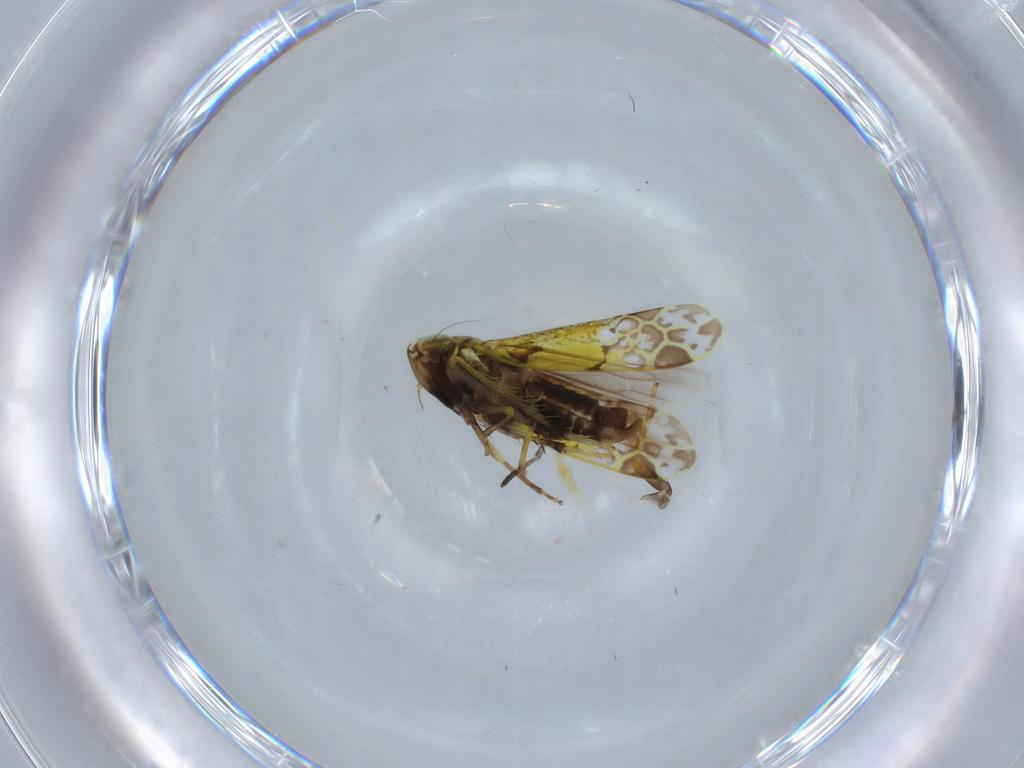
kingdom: Animalia
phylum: Arthropoda
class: Insecta
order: Hemiptera
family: Cicadellidae
